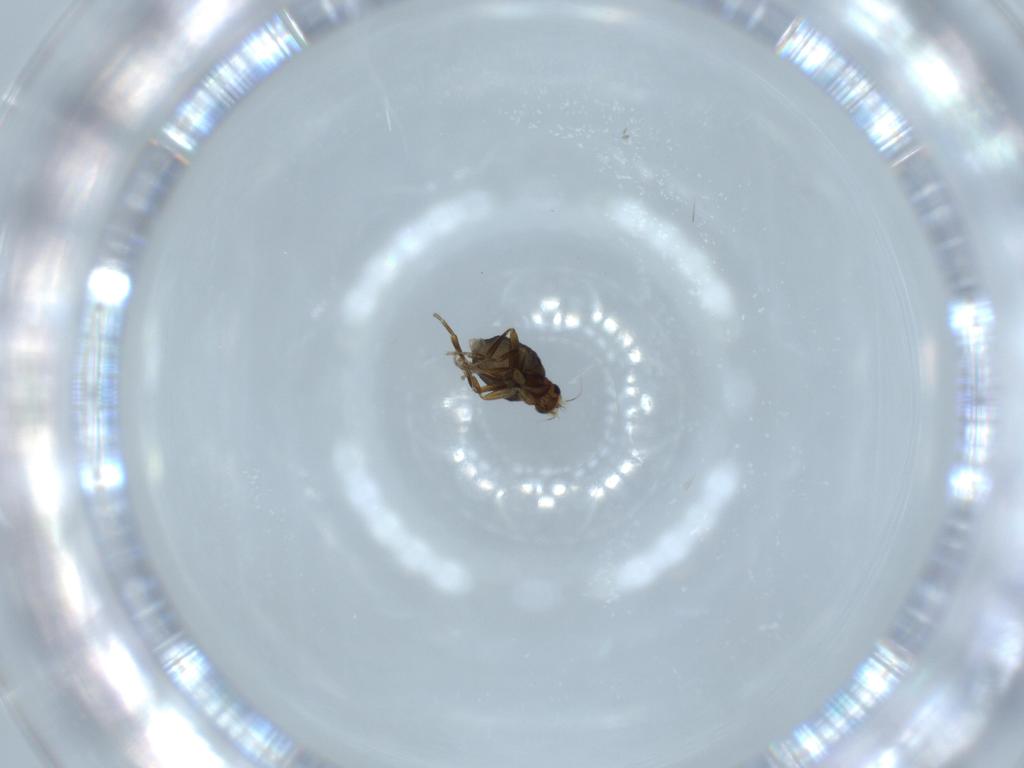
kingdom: Animalia
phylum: Arthropoda
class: Insecta
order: Diptera
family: Phoridae
